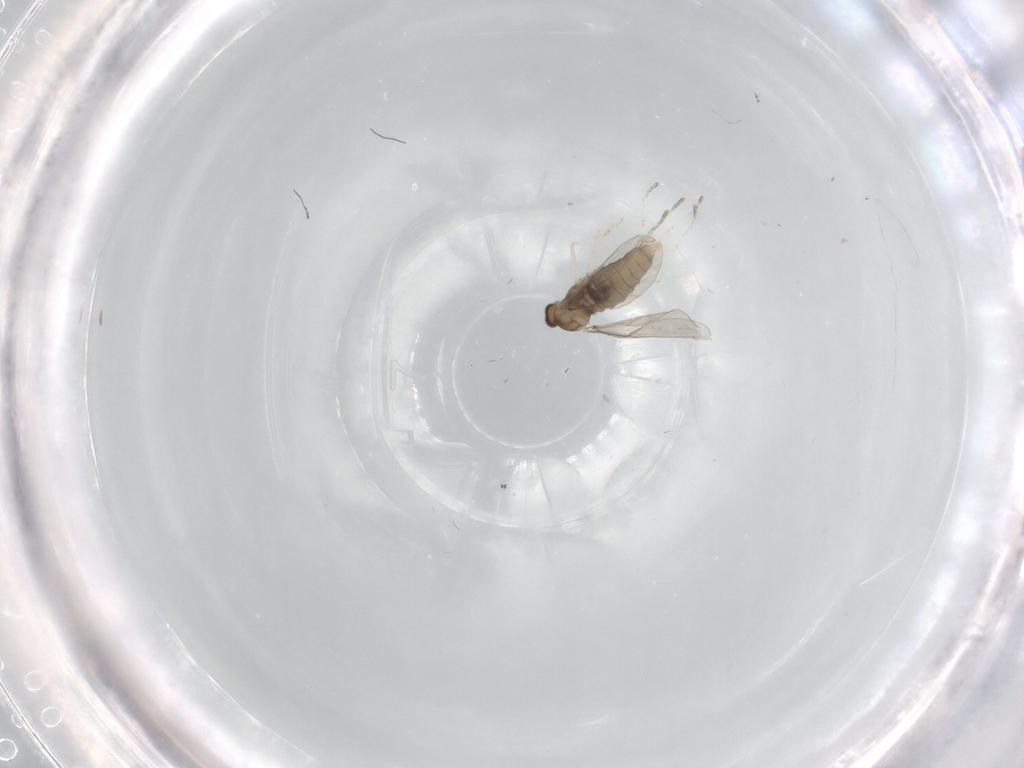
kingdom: Animalia
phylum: Arthropoda
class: Insecta
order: Diptera
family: Cecidomyiidae
